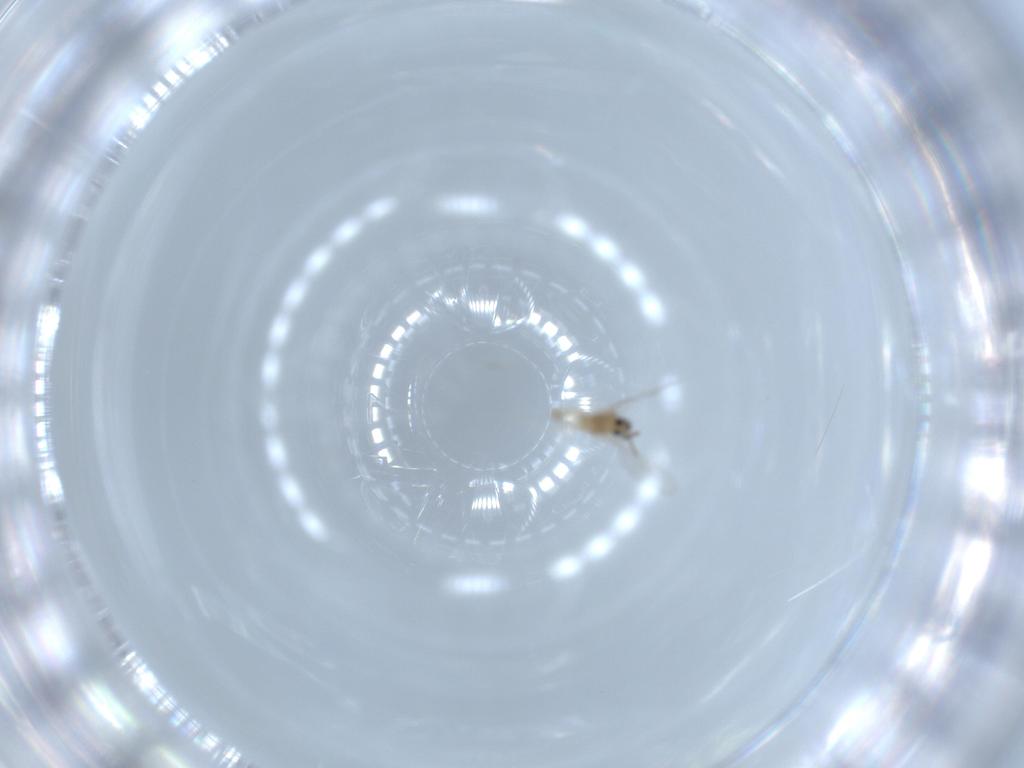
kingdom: Animalia
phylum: Arthropoda
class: Insecta
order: Diptera
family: Cecidomyiidae
